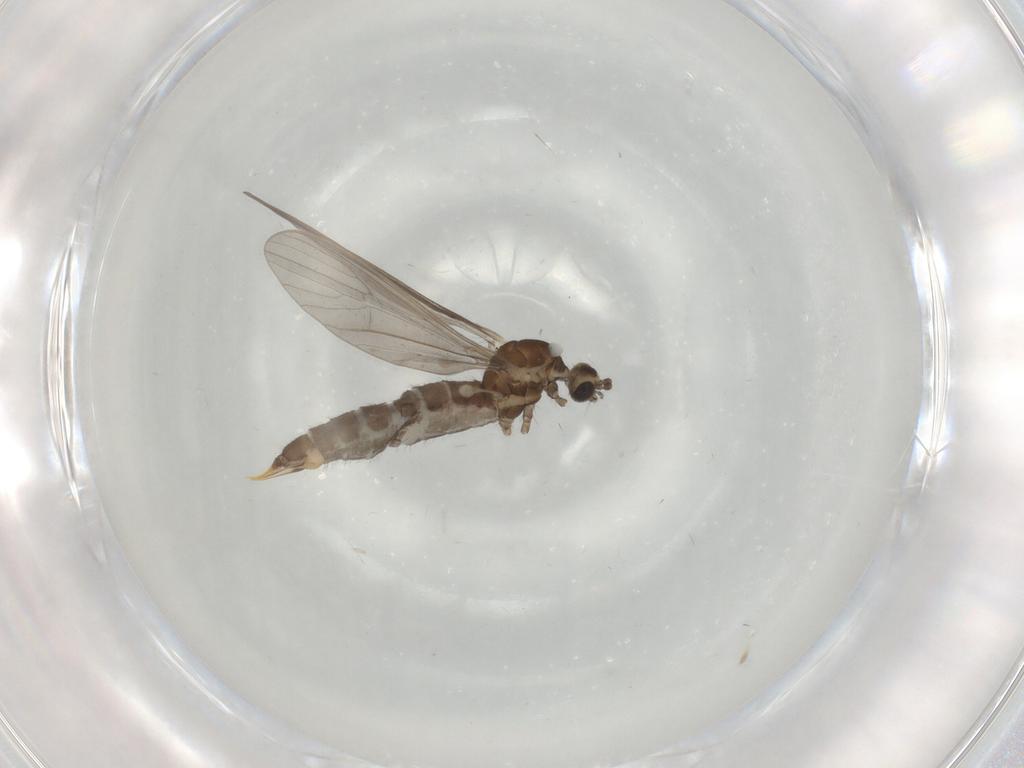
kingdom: Animalia
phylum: Arthropoda
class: Insecta
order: Diptera
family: Limoniidae
